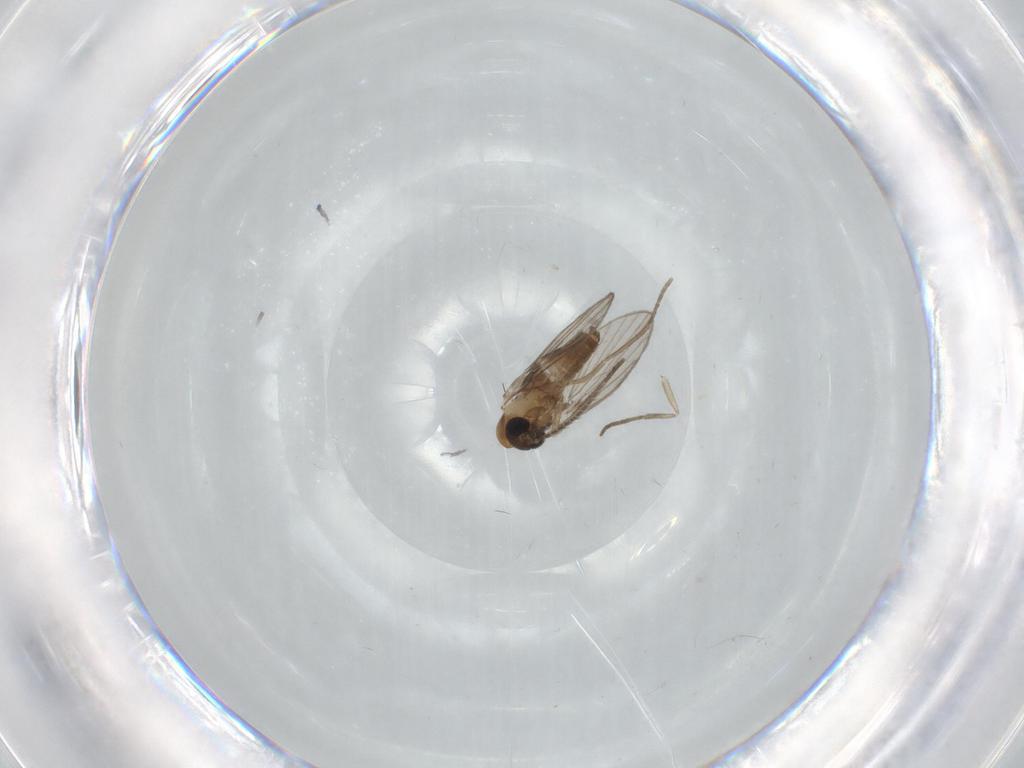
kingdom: Animalia
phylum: Arthropoda
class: Insecta
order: Diptera
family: Psychodidae
